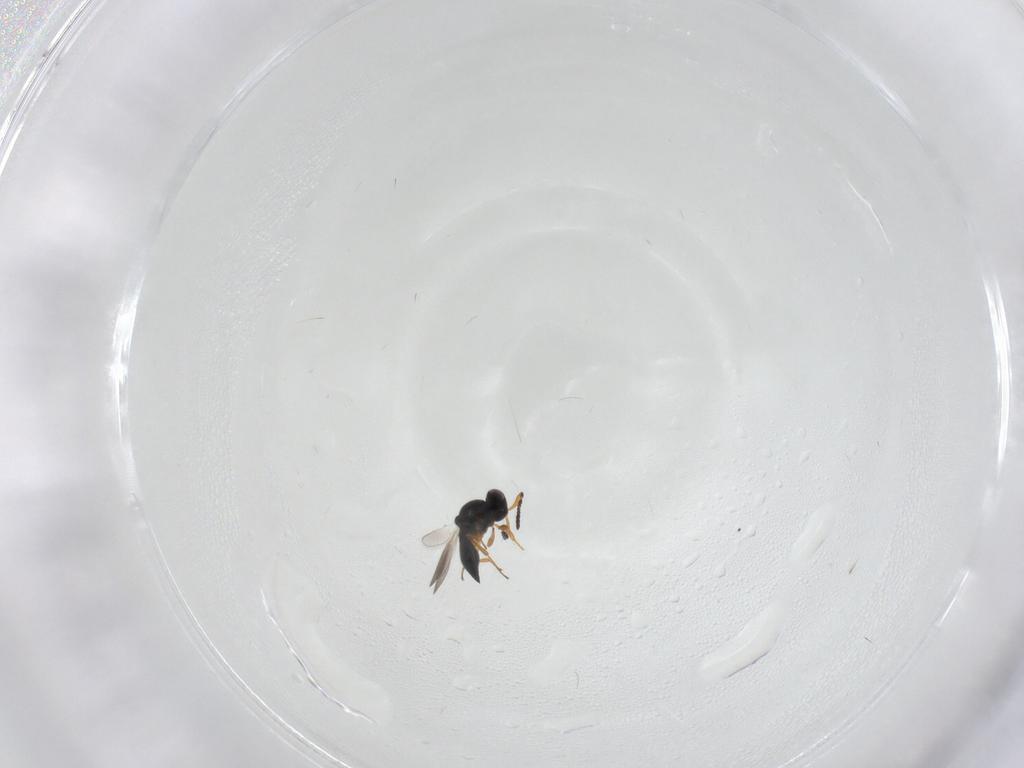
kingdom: Animalia
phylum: Arthropoda
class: Insecta
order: Hymenoptera
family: Platygastridae
